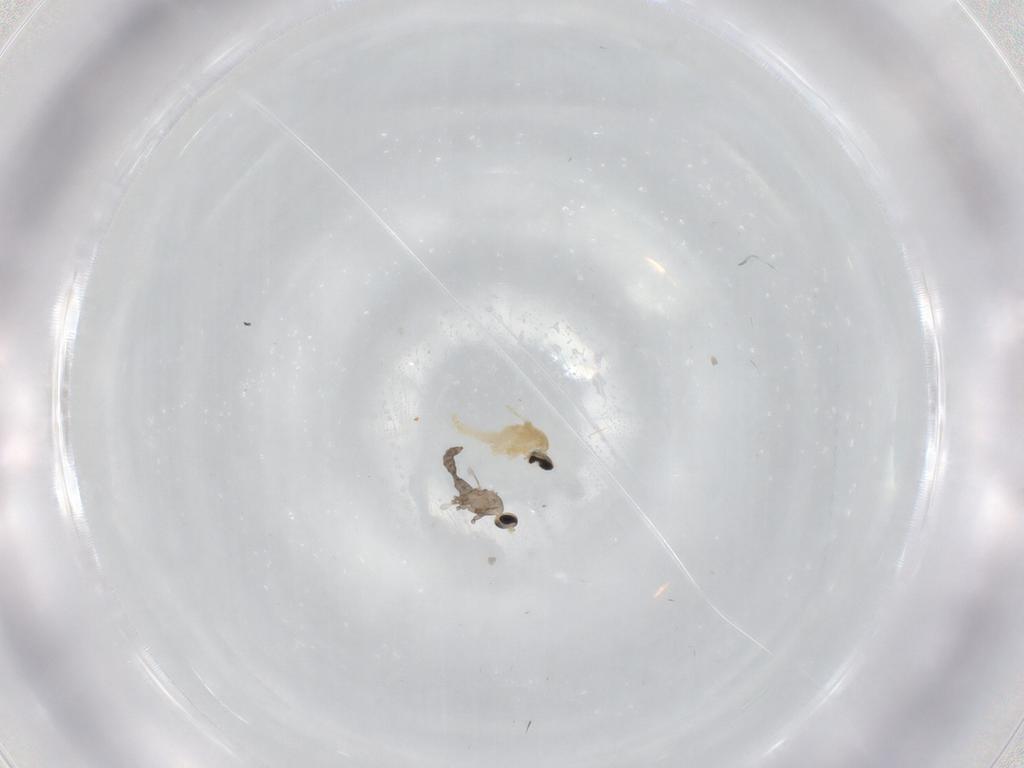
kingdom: Animalia
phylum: Arthropoda
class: Insecta
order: Diptera
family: Cecidomyiidae
